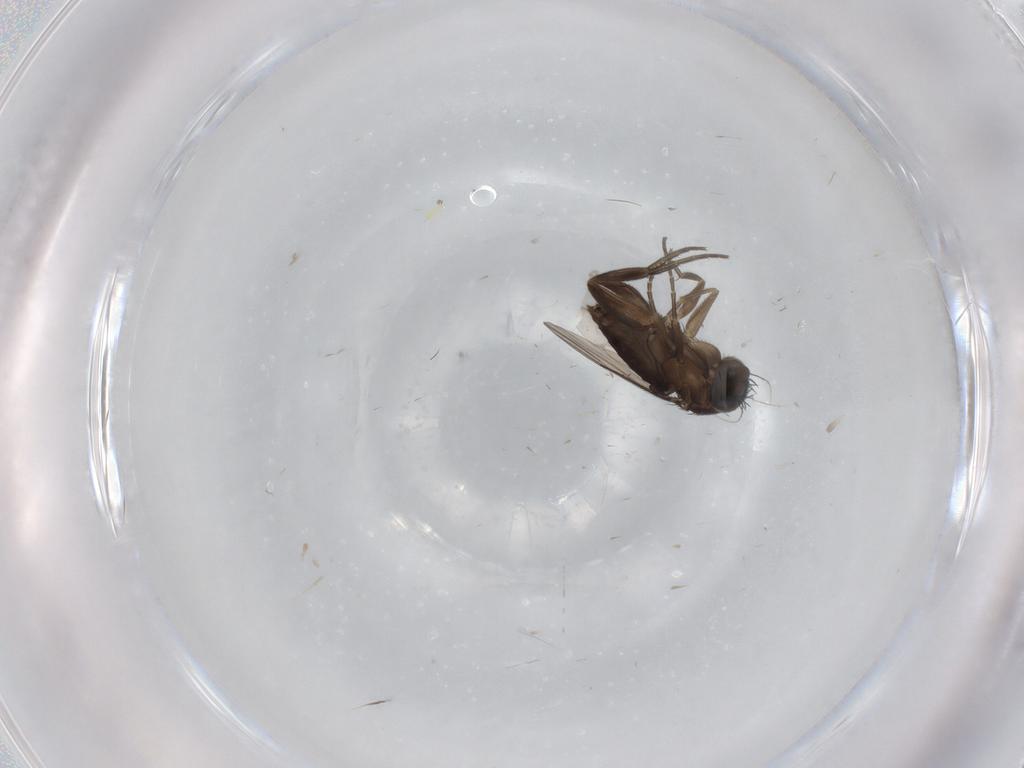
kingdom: Animalia
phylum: Arthropoda
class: Insecta
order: Diptera
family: Phoridae
